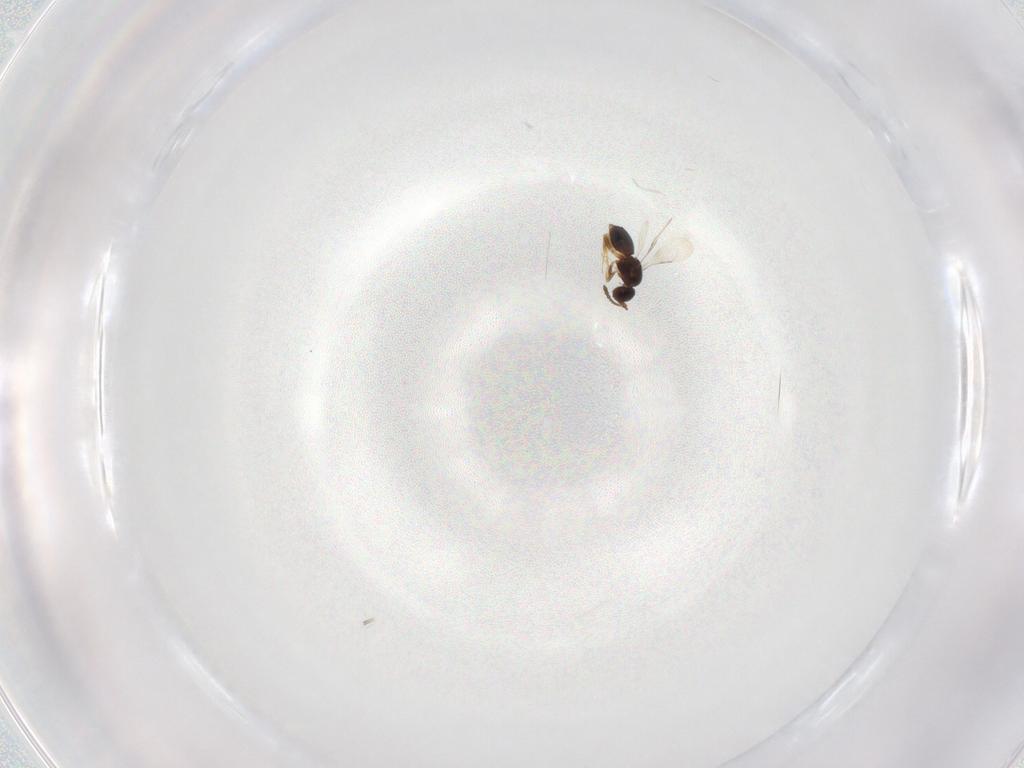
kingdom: Animalia
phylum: Arthropoda
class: Insecta
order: Hymenoptera
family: Ceraphronidae
